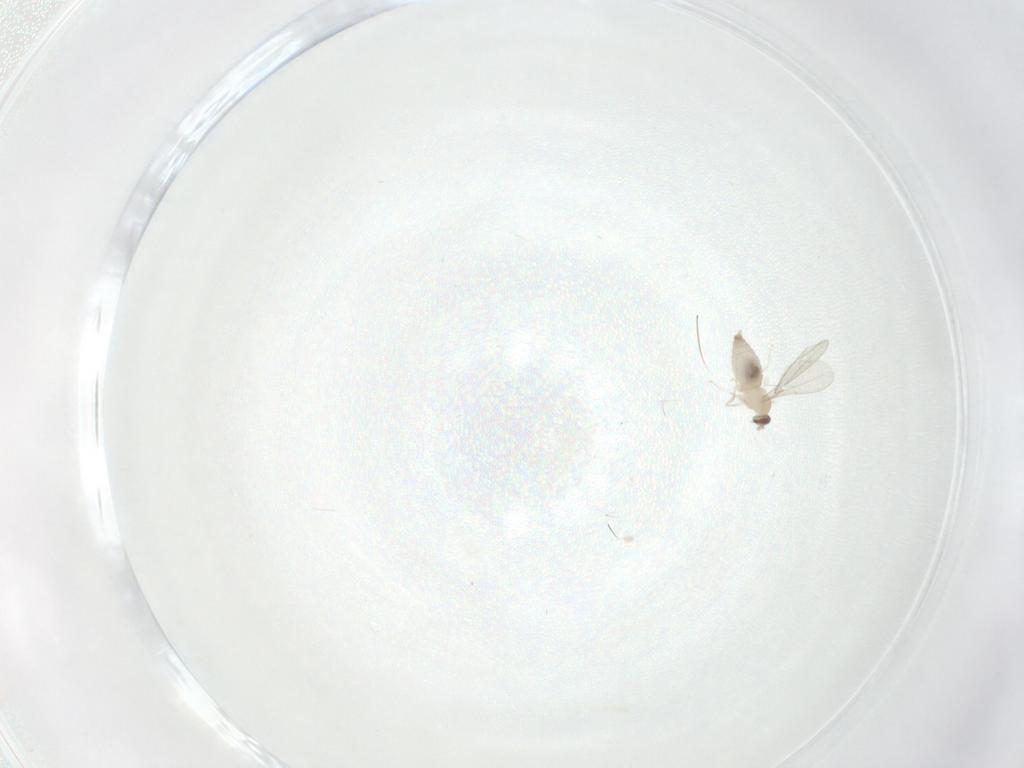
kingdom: Animalia
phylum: Arthropoda
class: Insecta
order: Diptera
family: Cecidomyiidae
